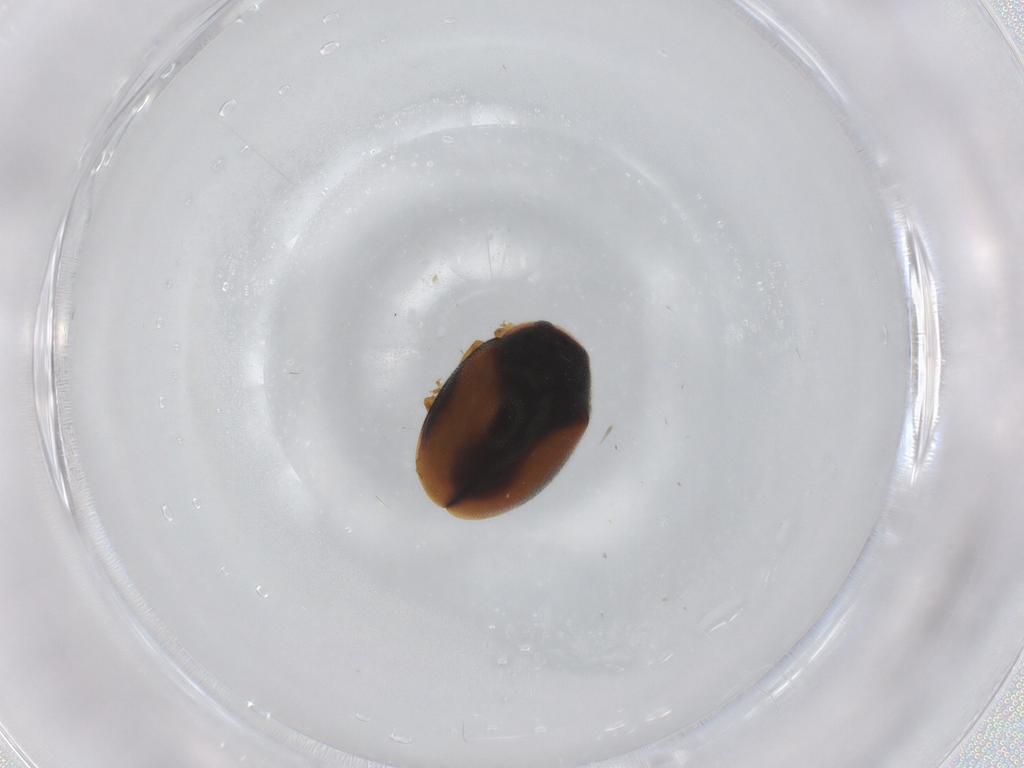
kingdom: Animalia
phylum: Arthropoda
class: Insecta
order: Coleoptera
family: Coccinellidae
